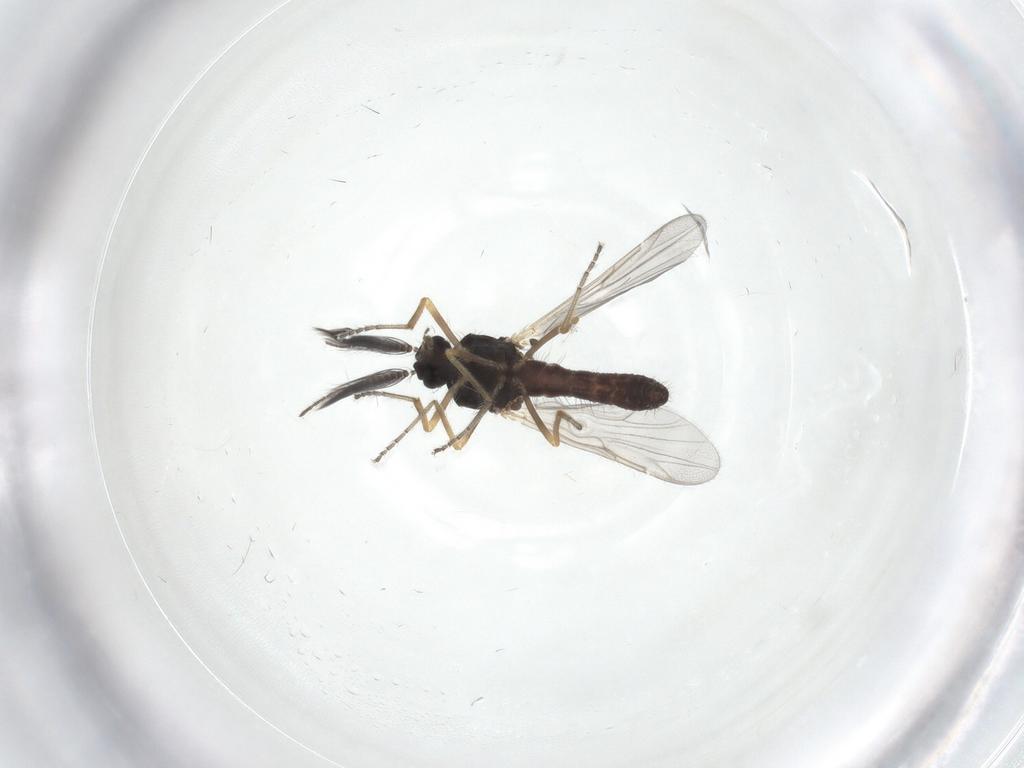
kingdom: Animalia
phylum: Arthropoda
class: Insecta
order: Diptera
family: Ceratopogonidae
